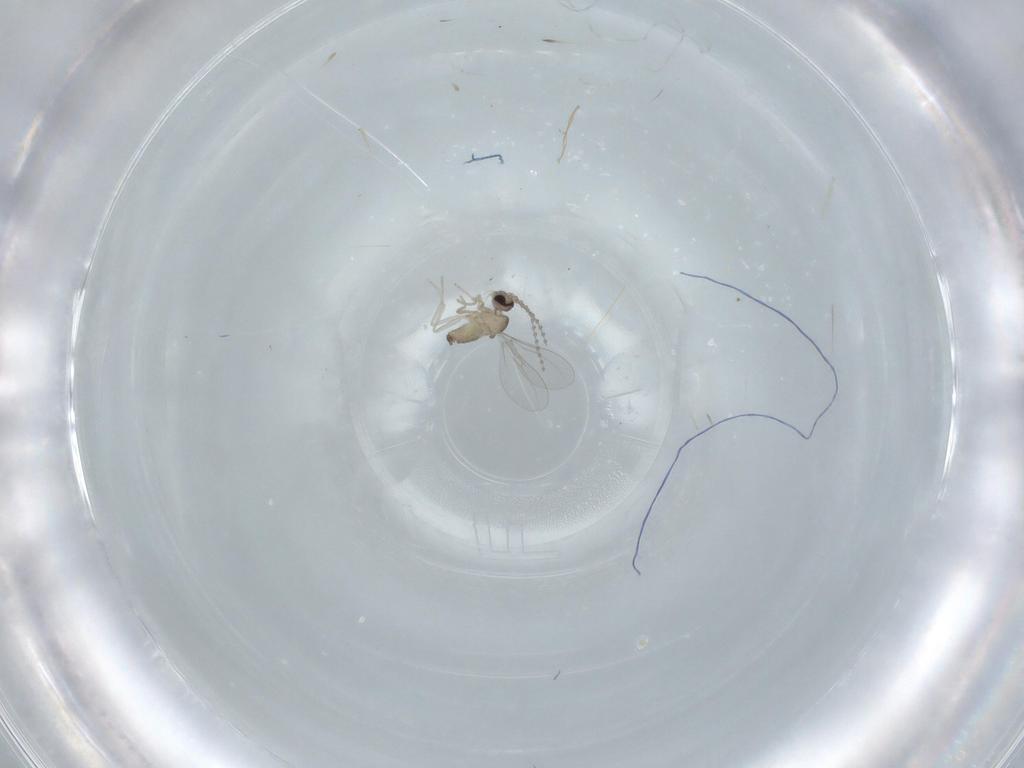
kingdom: Animalia
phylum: Arthropoda
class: Insecta
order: Diptera
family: Cecidomyiidae
